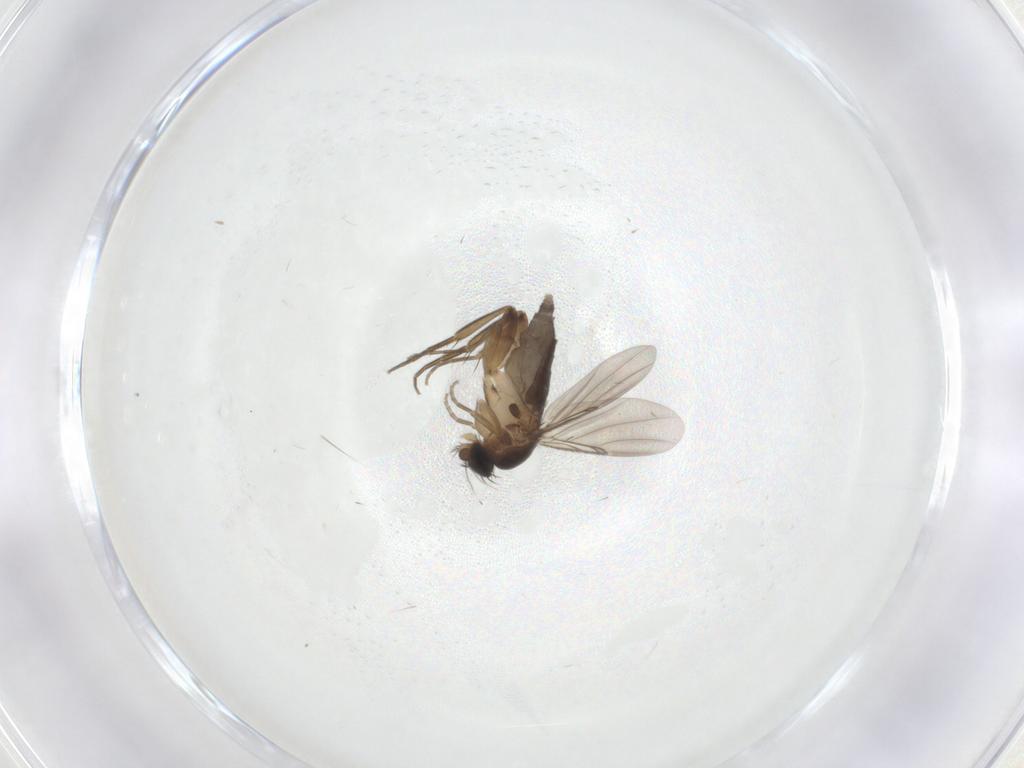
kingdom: Animalia
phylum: Arthropoda
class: Insecta
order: Diptera
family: Phoridae
